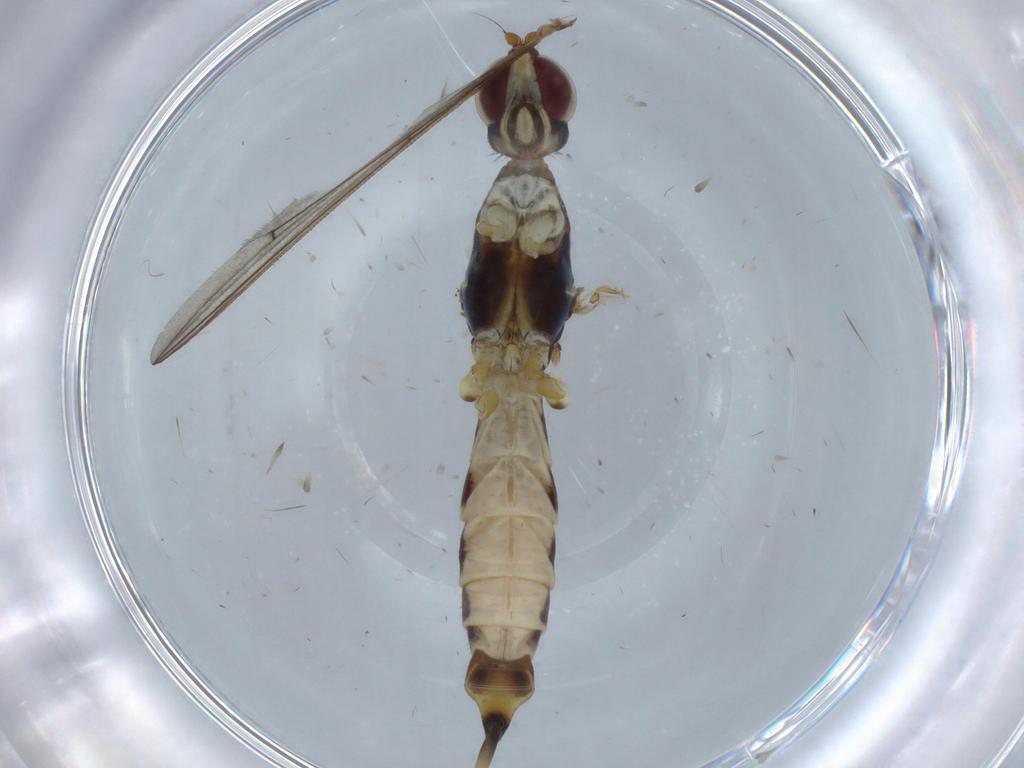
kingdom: Animalia
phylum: Arthropoda
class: Insecta
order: Diptera
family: Micropezidae
